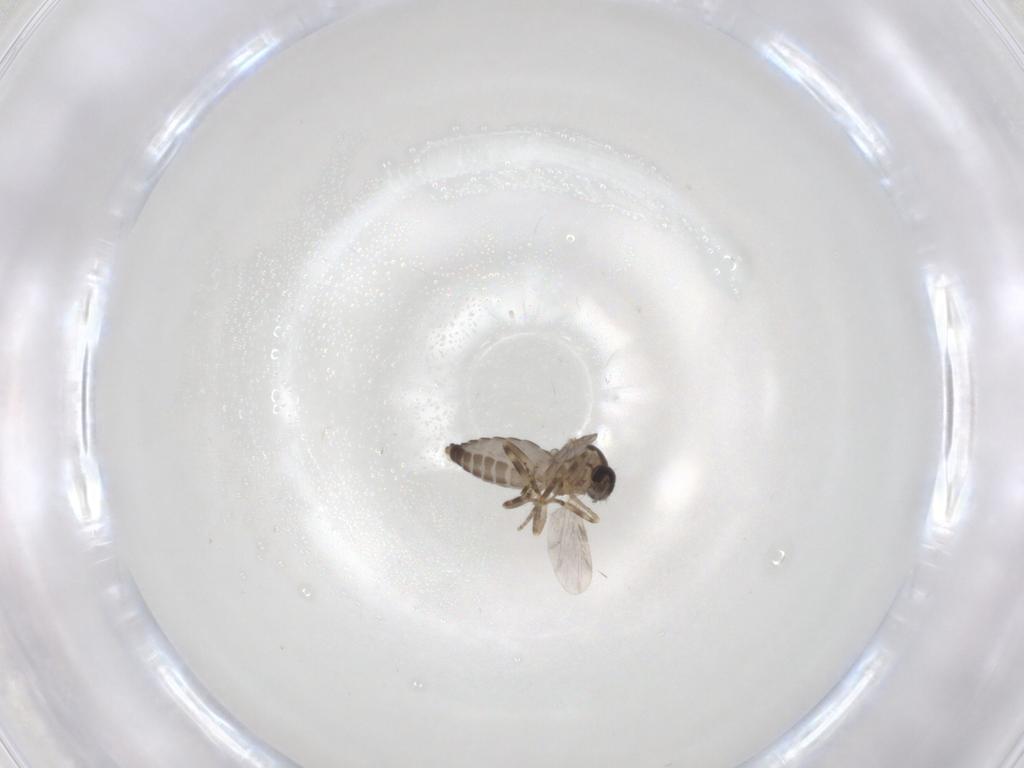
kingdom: Animalia
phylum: Arthropoda
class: Insecta
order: Diptera
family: Ceratopogonidae
